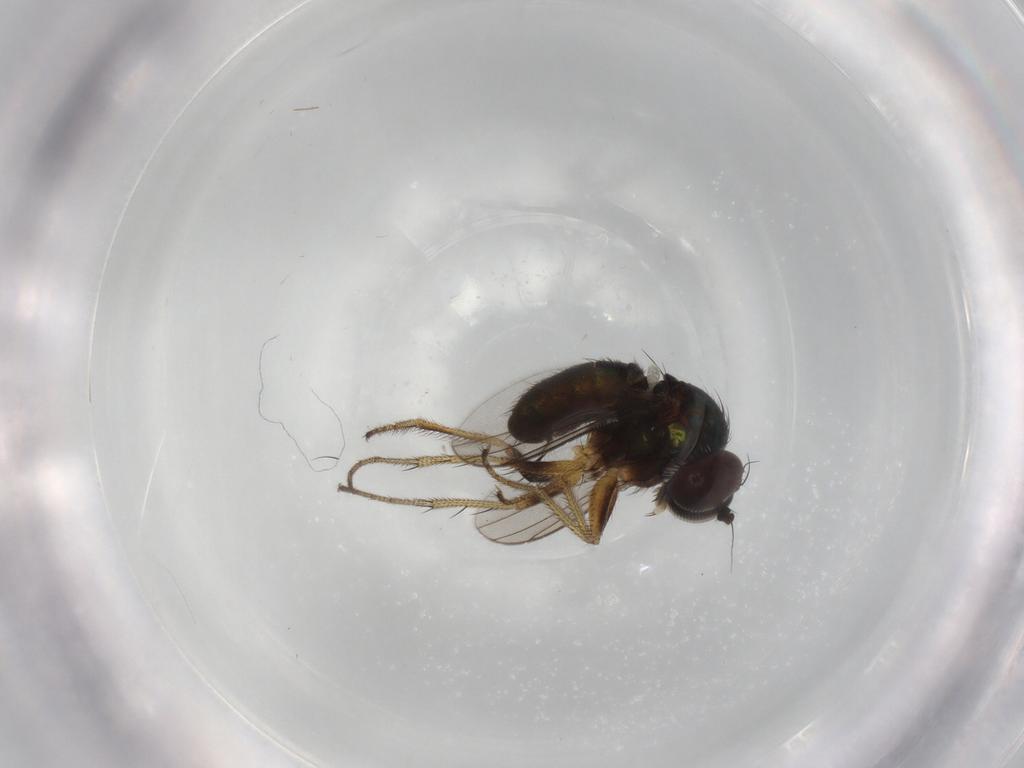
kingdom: Animalia
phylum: Arthropoda
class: Insecta
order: Diptera
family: Dolichopodidae
